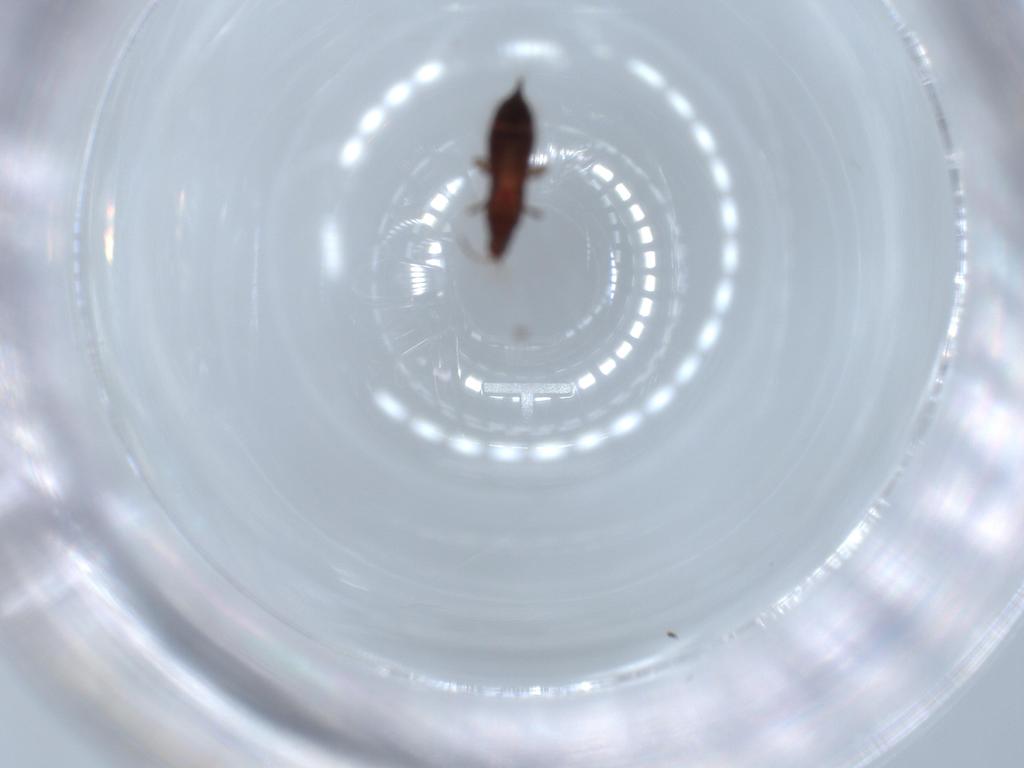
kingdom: Animalia
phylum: Arthropoda
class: Insecta
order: Thysanoptera
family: Phlaeothripidae
